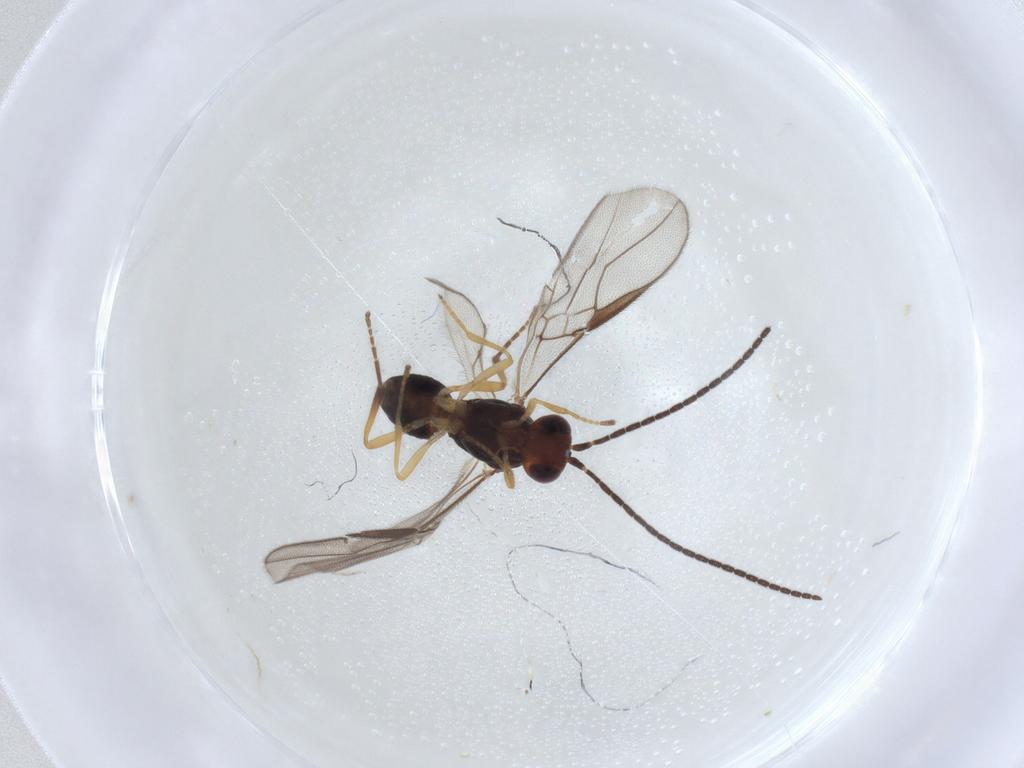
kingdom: Animalia
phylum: Arthropoda
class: Insecta
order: Hymenoptera
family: Braconidae
